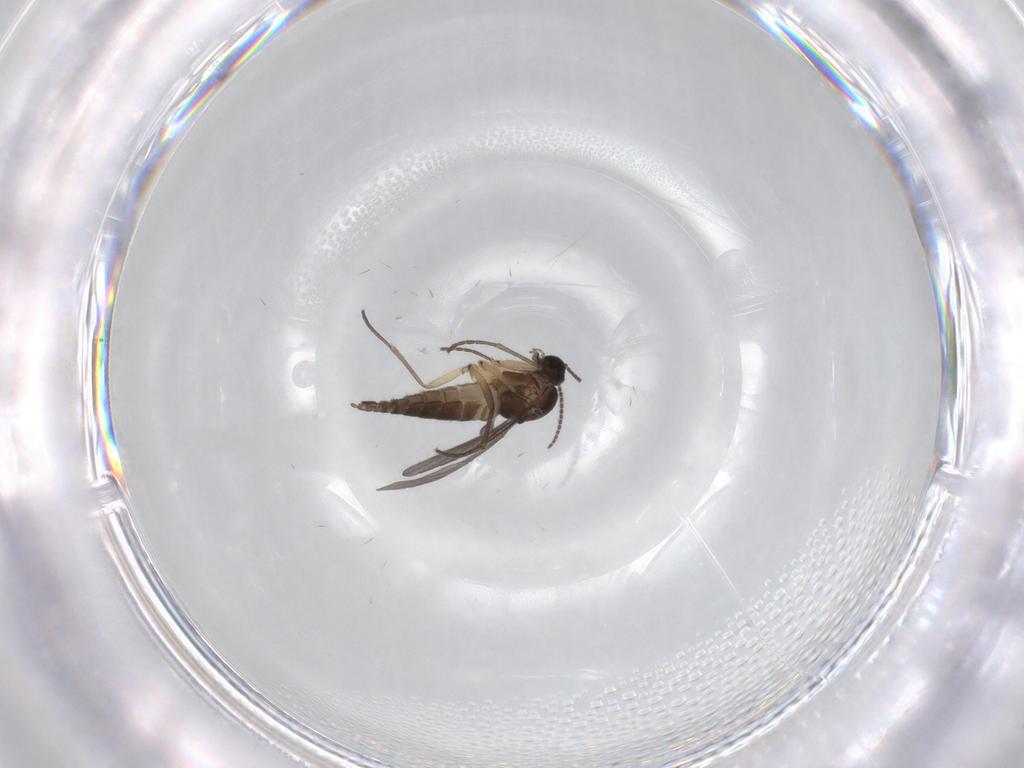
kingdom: Animalia
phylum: Arthropoda
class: Insecta
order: Diptera
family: Sciaridae
